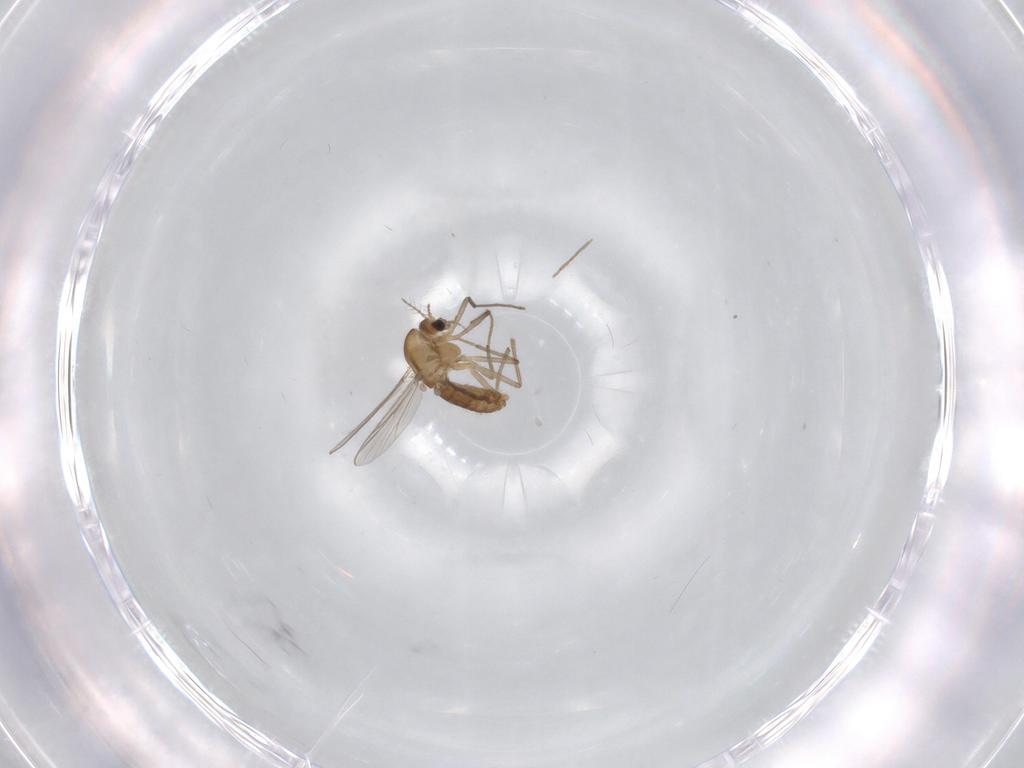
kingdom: Animalia
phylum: Arthropoda
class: Insecta
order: Diptera
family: Chironomidae
